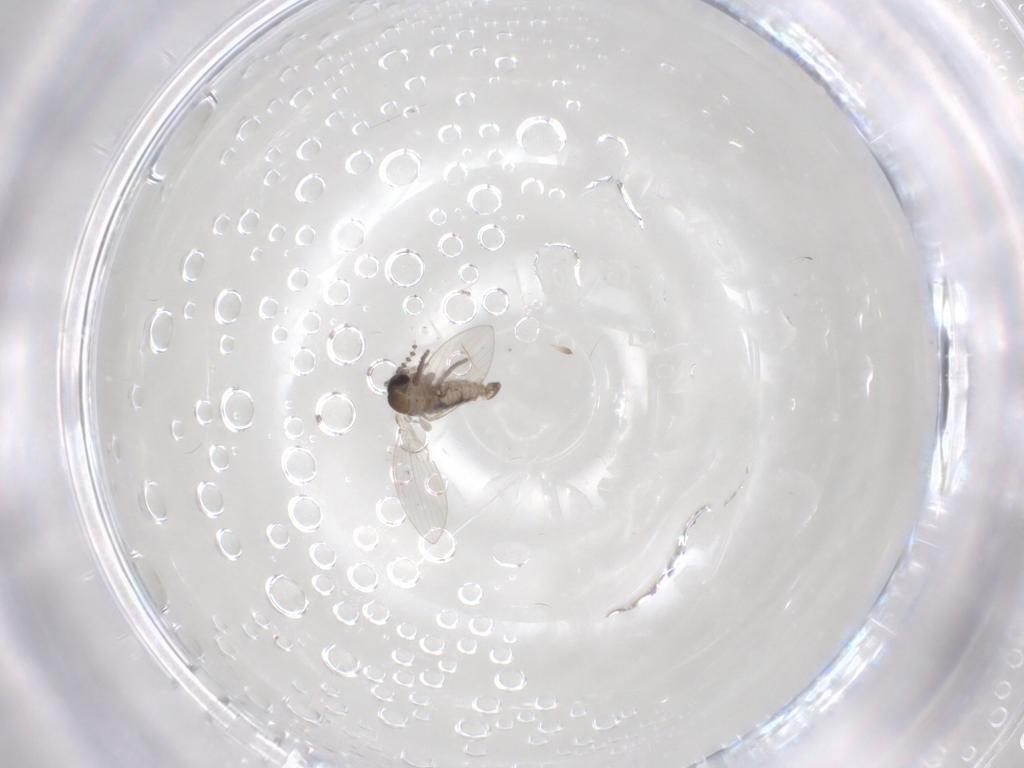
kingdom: Animalia
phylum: Arthropoda
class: Insecta
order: Diptera
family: Psychodidae
